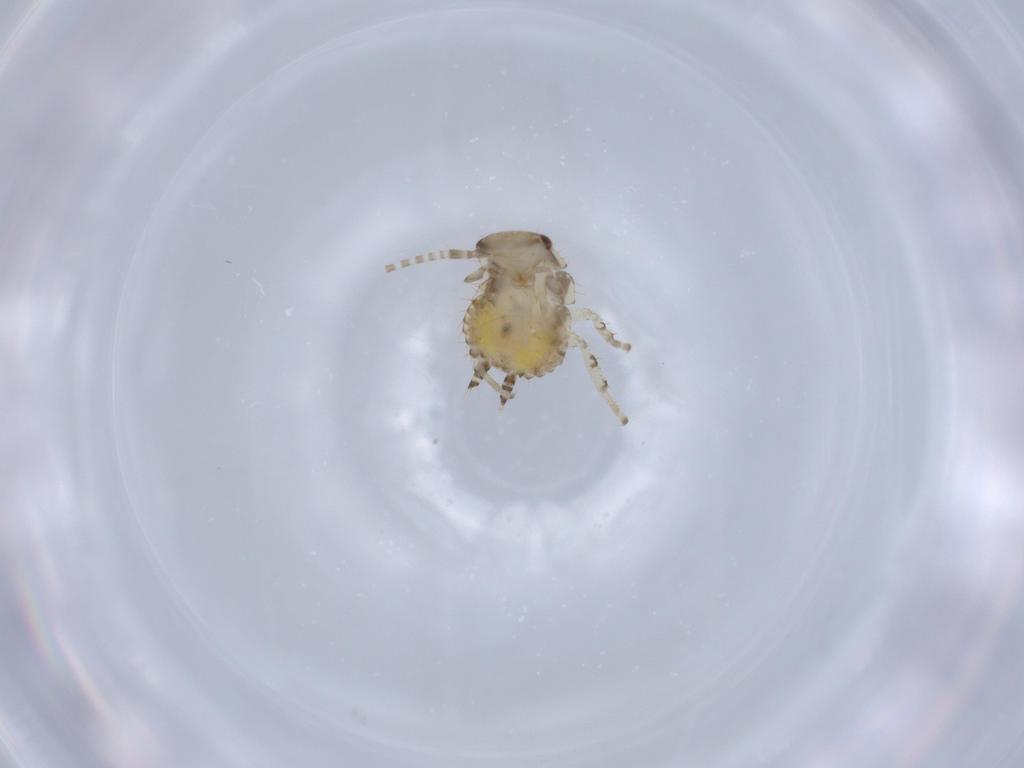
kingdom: Animalia
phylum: Arthropoda
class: Insecta
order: Blattodea
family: Ectobiidae
